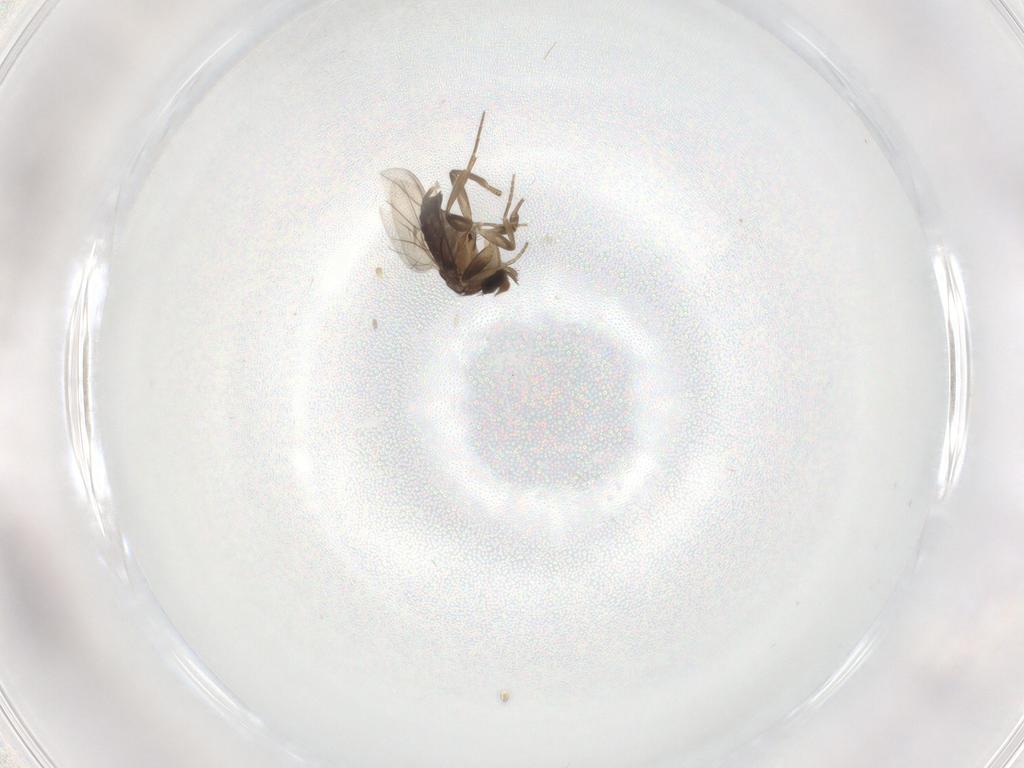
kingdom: Animalia
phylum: Arthropoda
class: Insecta
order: Diptera
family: Phoridae
